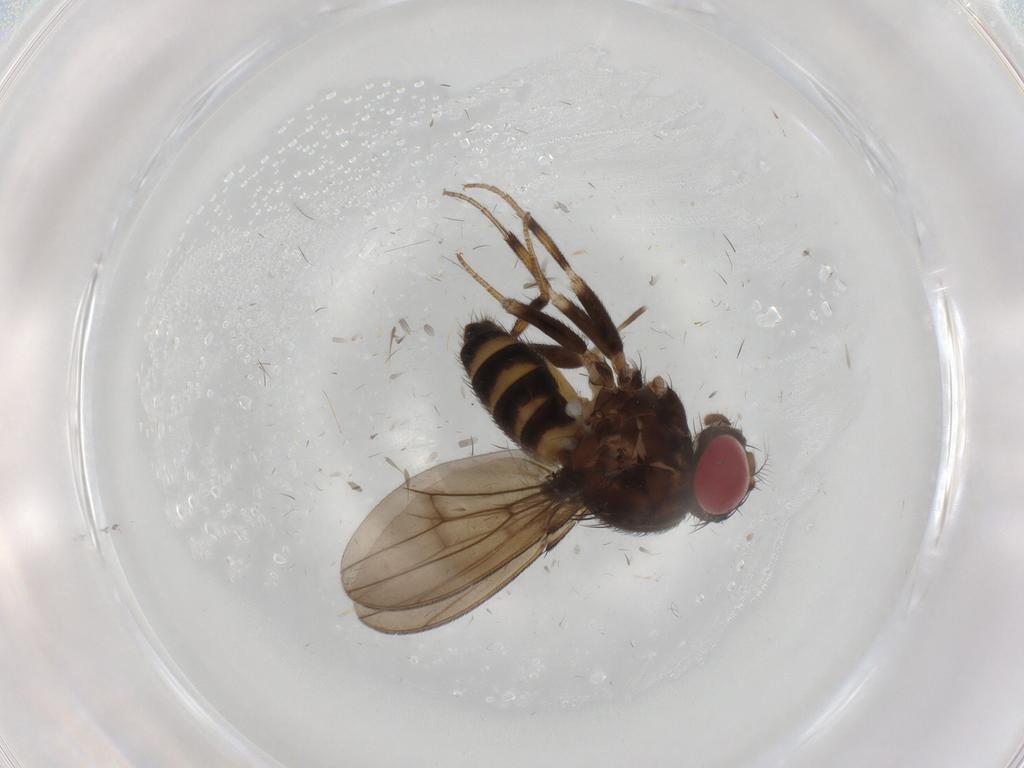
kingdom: Animalia
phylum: Arthropoda
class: Insecta
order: Diptera
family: Drosophilidae
